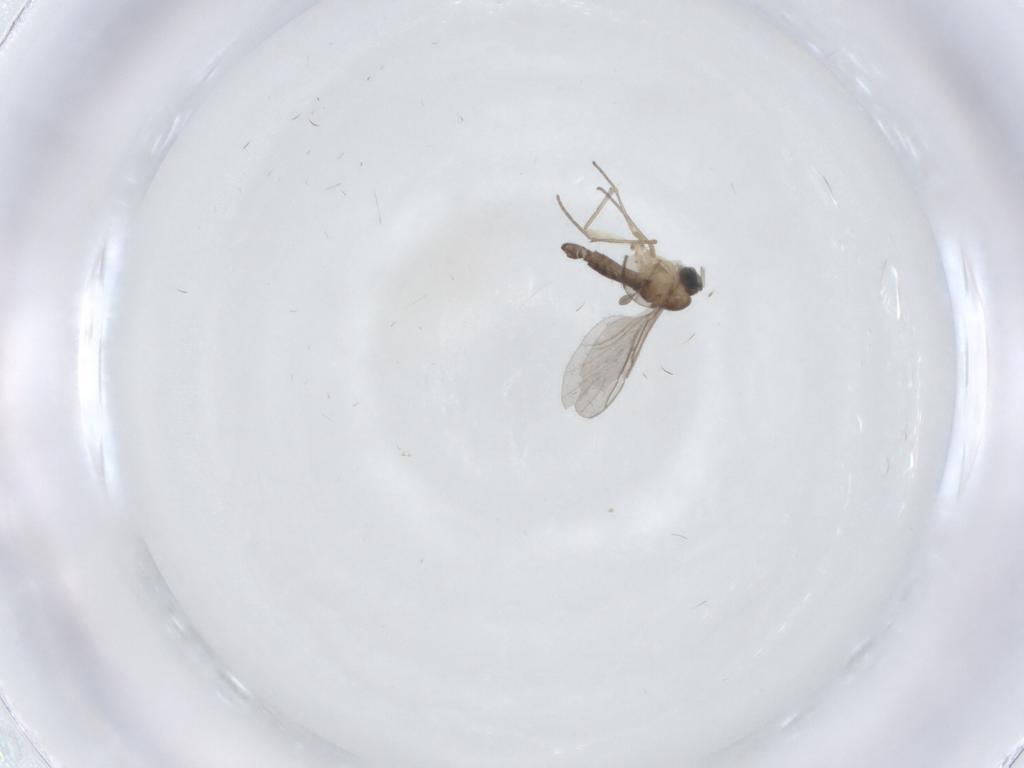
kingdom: Animalia
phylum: Arthropoda
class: Insecta
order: Diptera
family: Sciaridae
